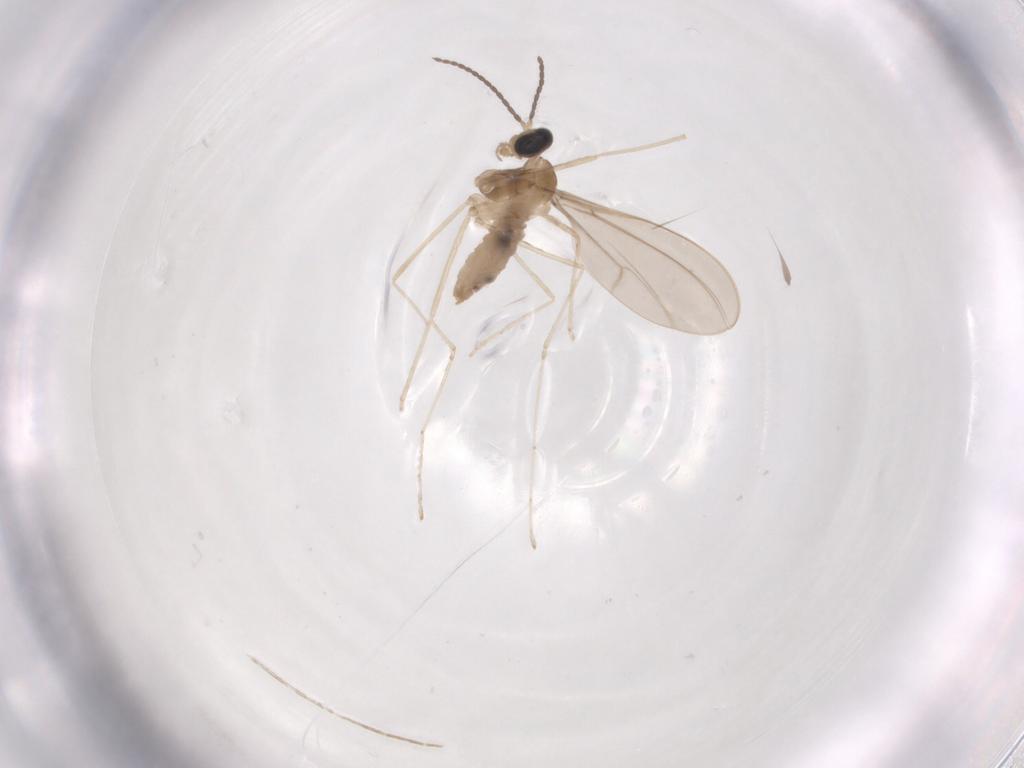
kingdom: Animalia
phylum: Arthropoda
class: Insecta
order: Diptera
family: Cecidomyiidae
